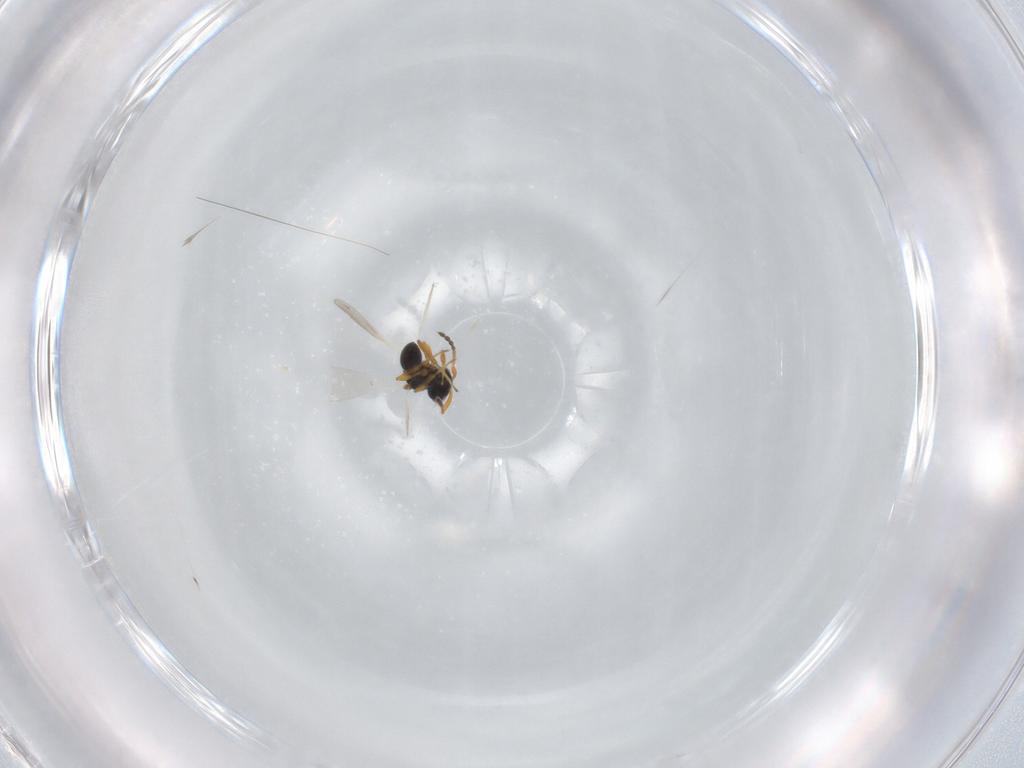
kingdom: Animalia
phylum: Arthropoda
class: Insecta
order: Hymenoptera
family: Platygastridae
